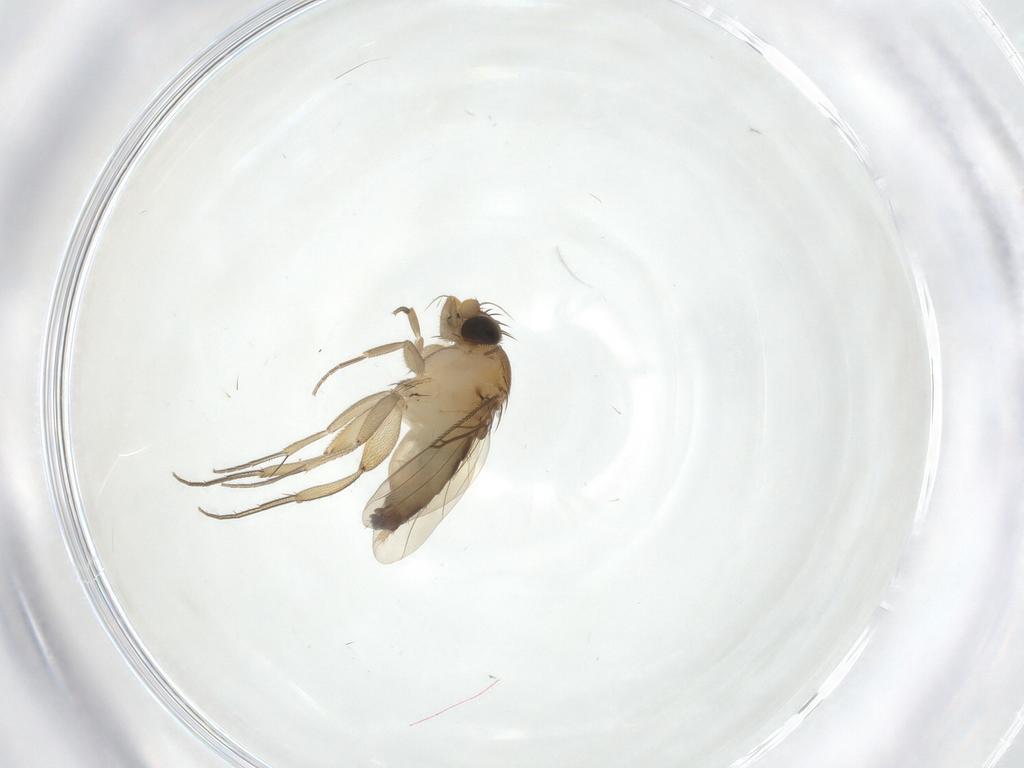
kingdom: Animalia
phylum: Arthropoda
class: Insecta
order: Diptera
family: Phoridae
